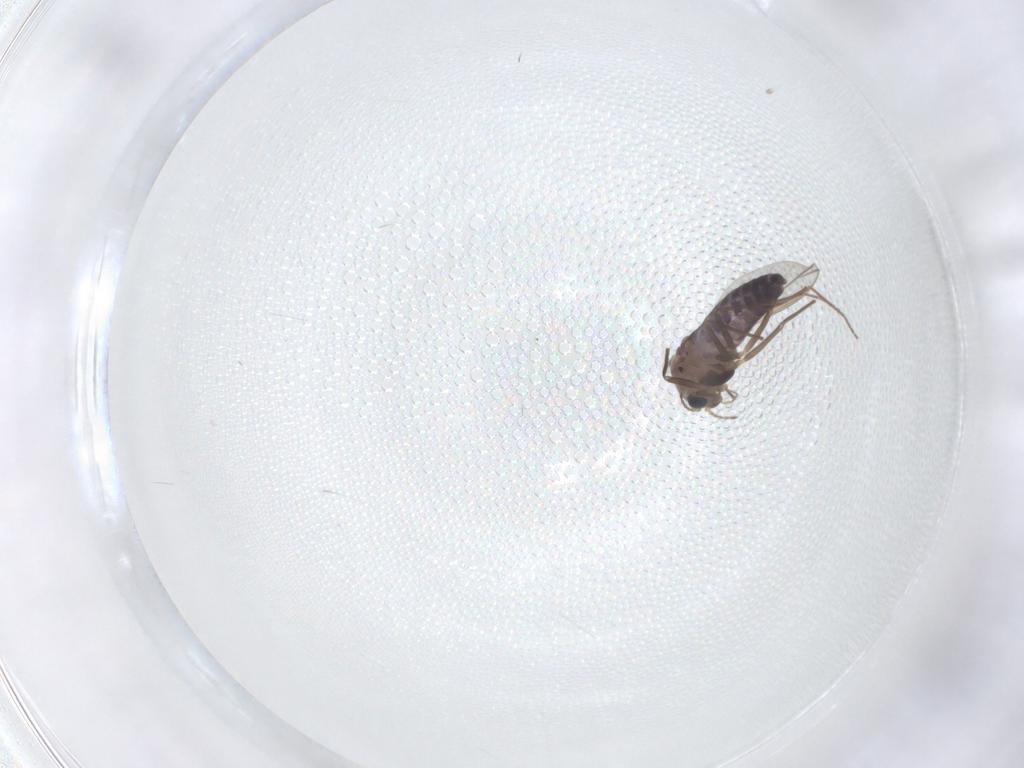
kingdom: Animalia
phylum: Arthropoda
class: Insecta
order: Diptera
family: Chironomidae
